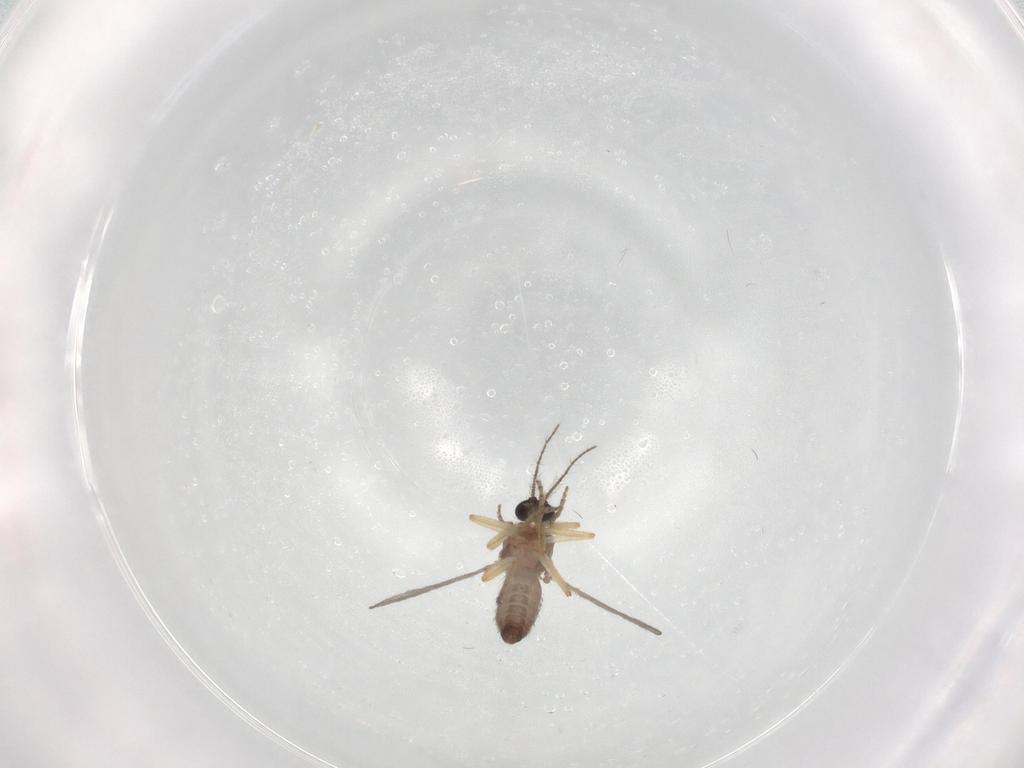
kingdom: Animalia
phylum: Arthropoda
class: Insecta
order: Diptera
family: Ceratopogonidae
